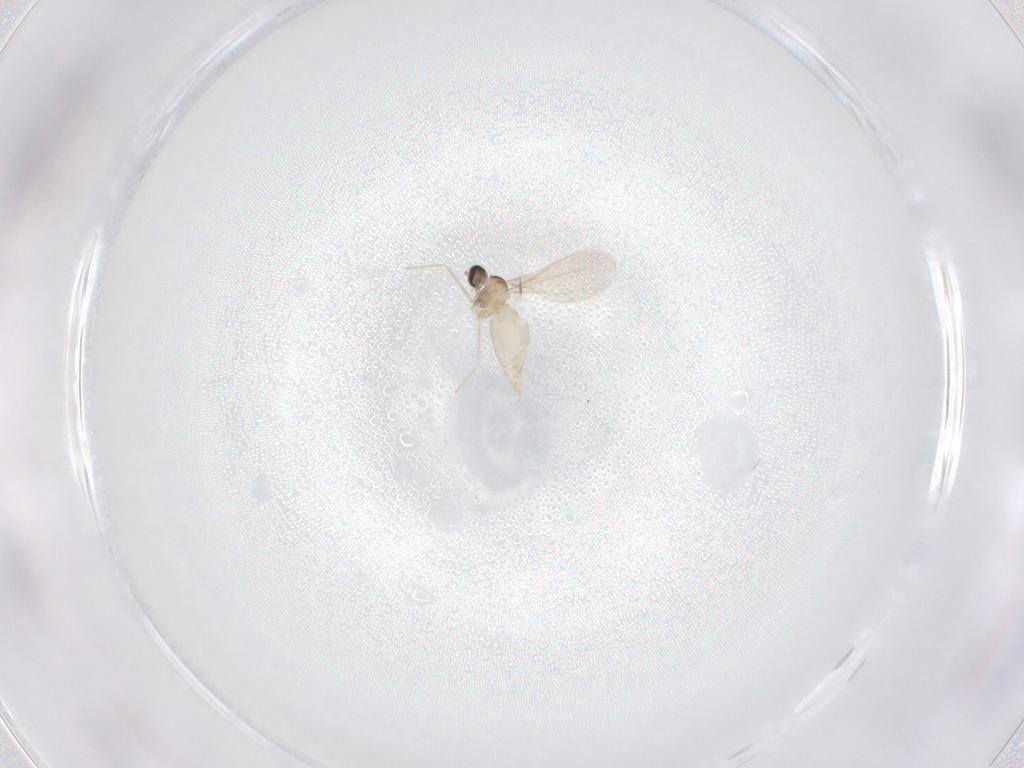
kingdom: Animalia
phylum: Arthropoda
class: Insecta
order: Diptera
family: Cecidomyiidae
